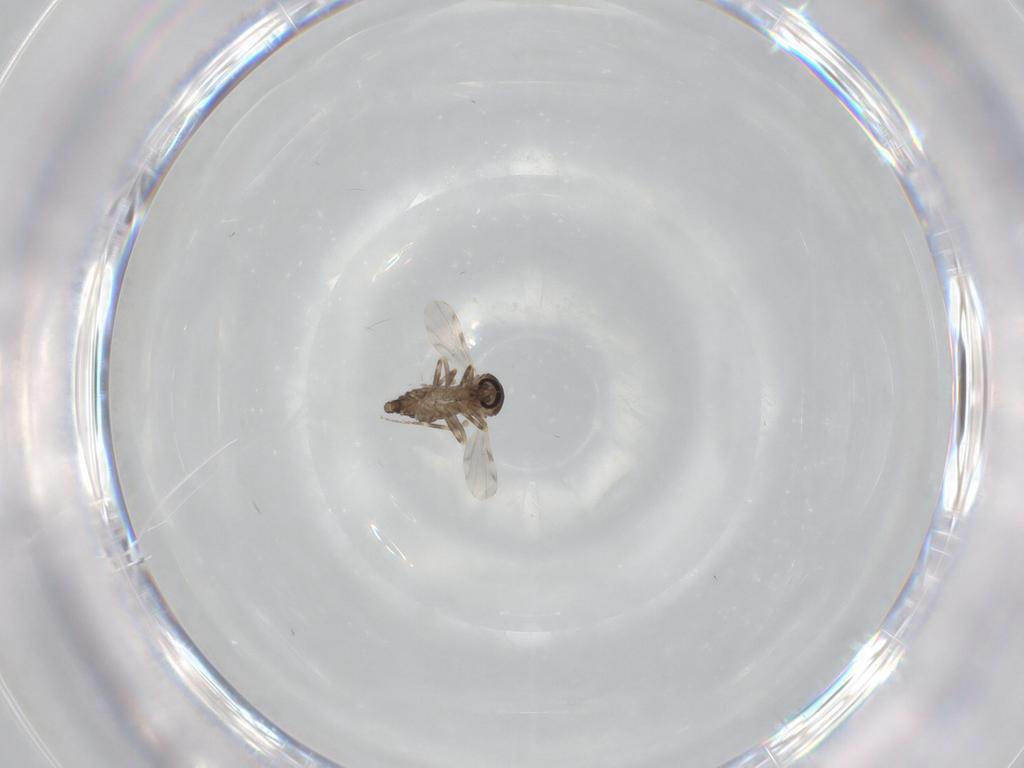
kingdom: Animalia
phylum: Arthropoda
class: Insecta
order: Diptera
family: Ceratopogonidae
